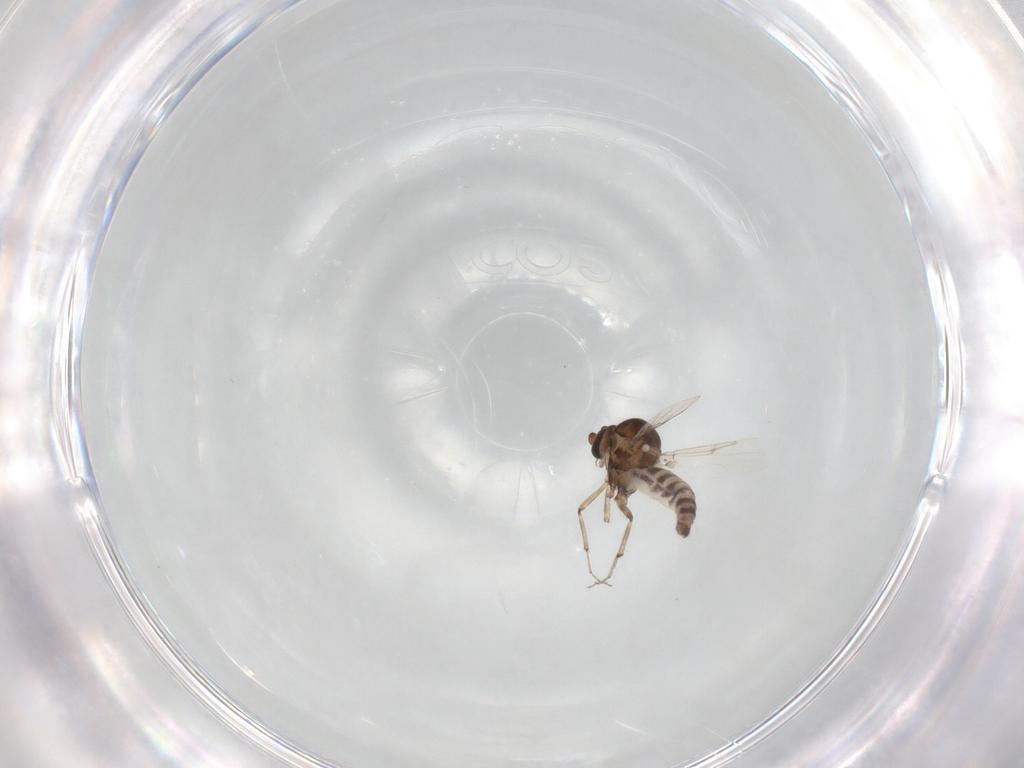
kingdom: Animalia
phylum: Arthropoda
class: Insecta
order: Diptera
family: Ceratopogonidae
